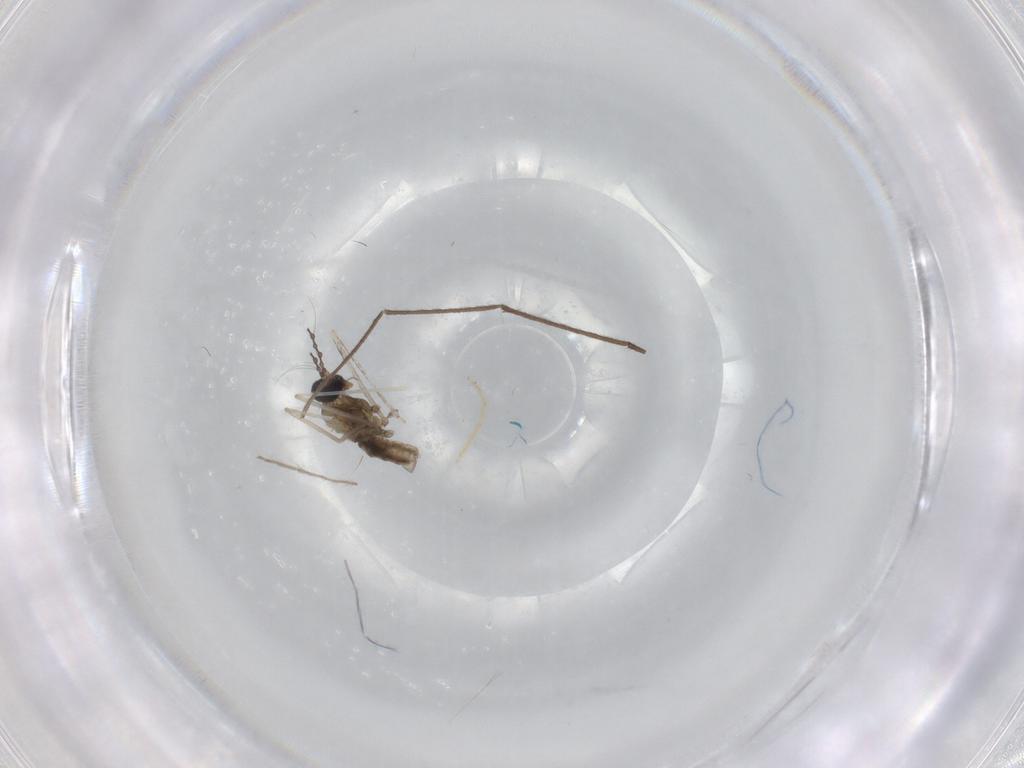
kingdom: Animalia
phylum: Arthropoda
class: Insecta
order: Diptera
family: Cecidomyiidae
